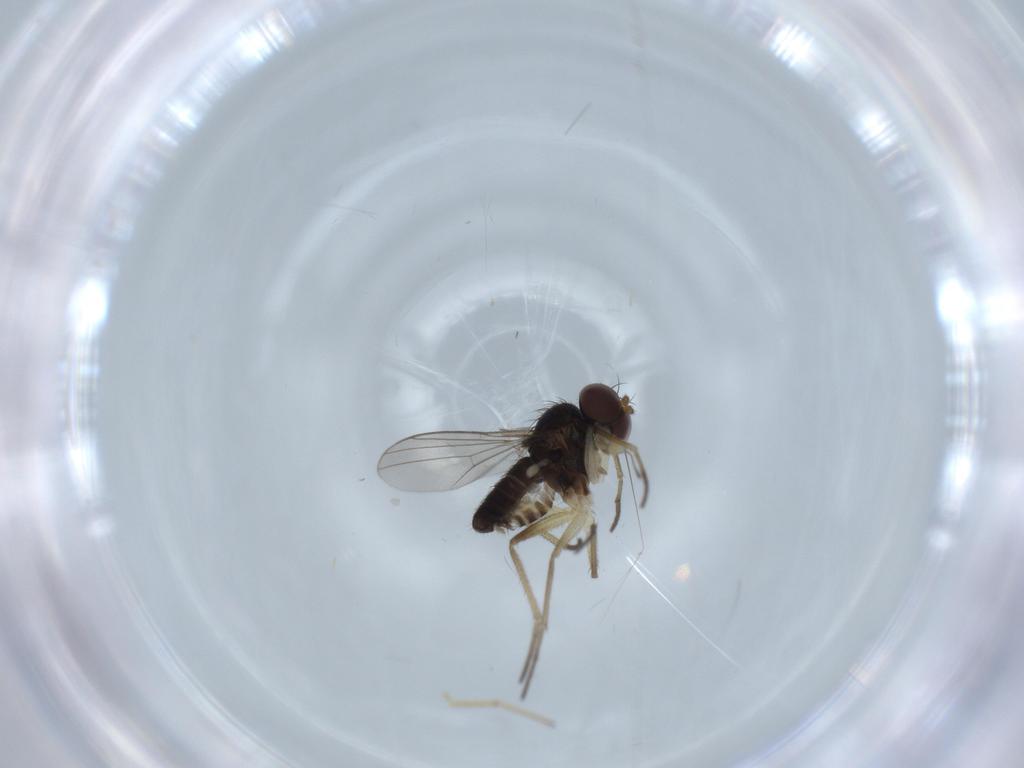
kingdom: Animalia
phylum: Arthropoda
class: Insecta
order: Diptera
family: Dolichopodidae
